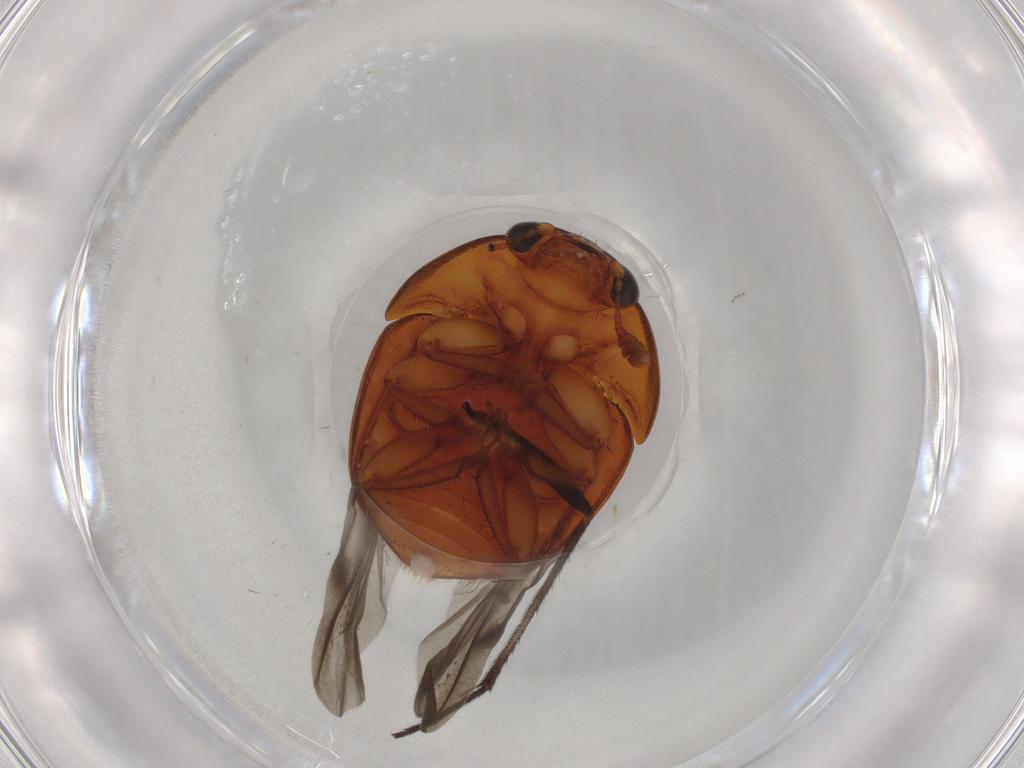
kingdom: Animalia
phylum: Arthropoda
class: Insecta
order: Coleoptera
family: Nitidulidae
